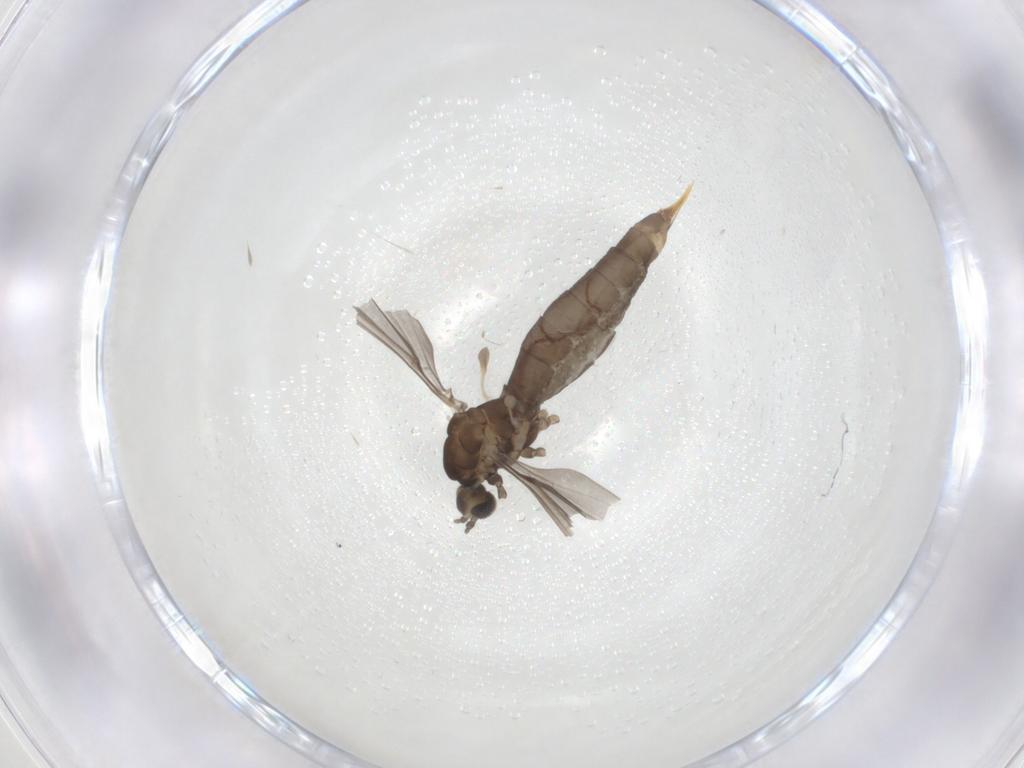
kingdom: Animalia
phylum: Arthropoda
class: Insecta
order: Diptera
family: Limoniidae
